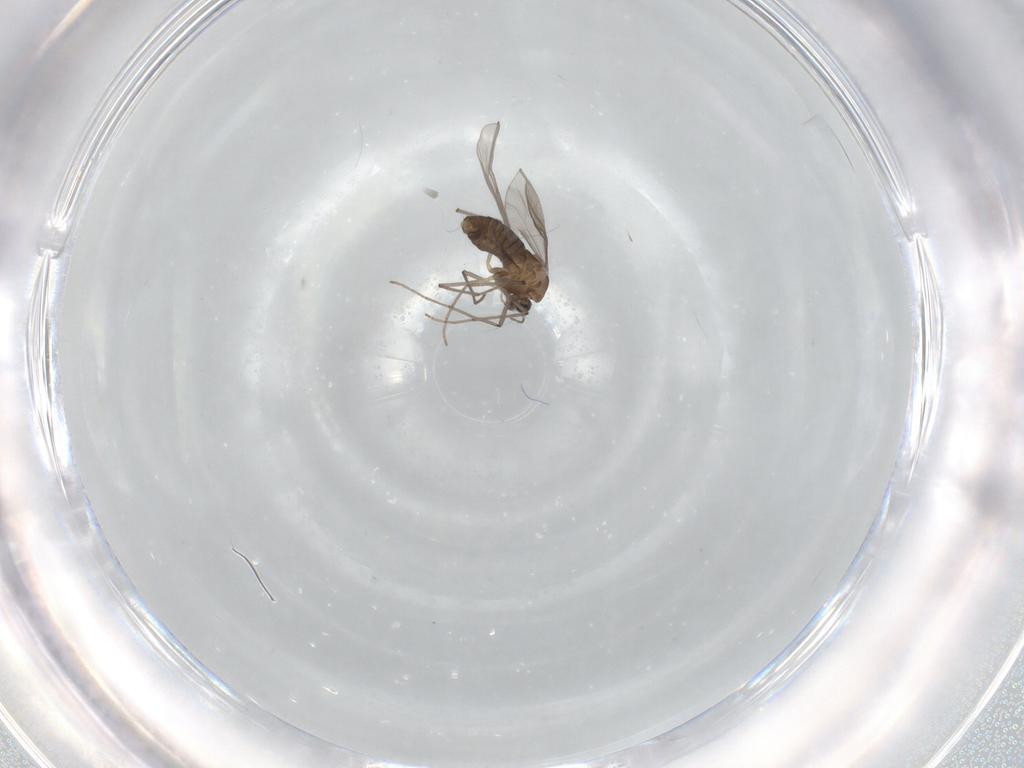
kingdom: Animalia
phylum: Arthropoda
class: Insecta
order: Diptera
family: Chironomidae
